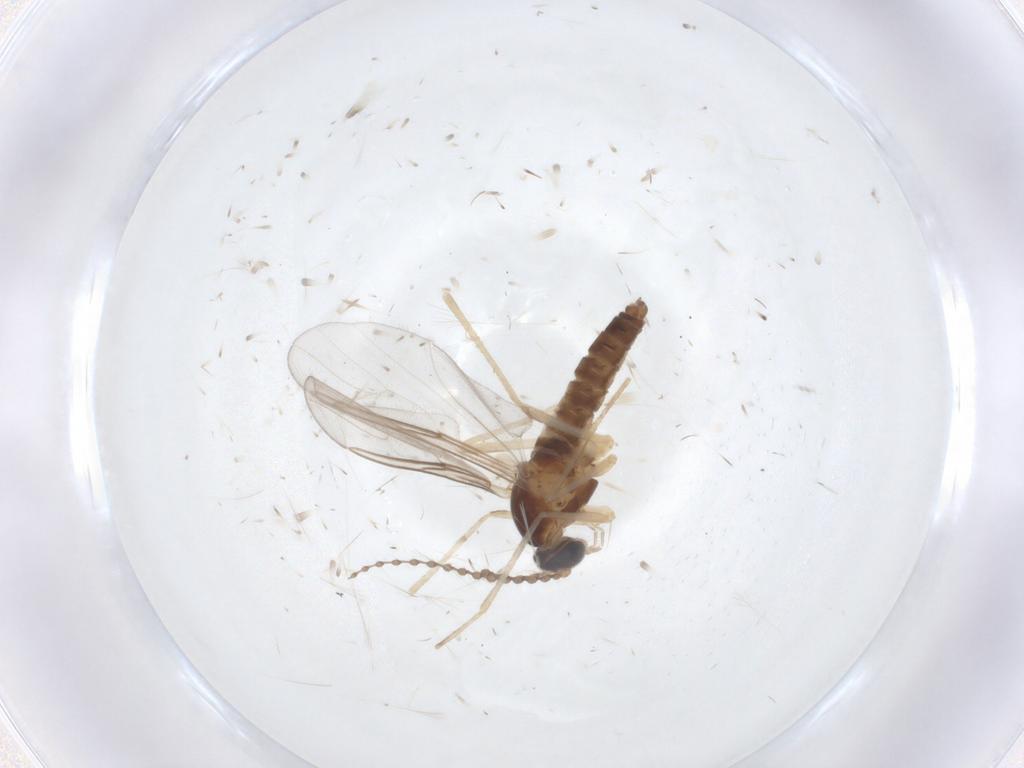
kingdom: Animalia
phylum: Arthropoda
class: Insecta
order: Diptera
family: Cecidomyiidae
